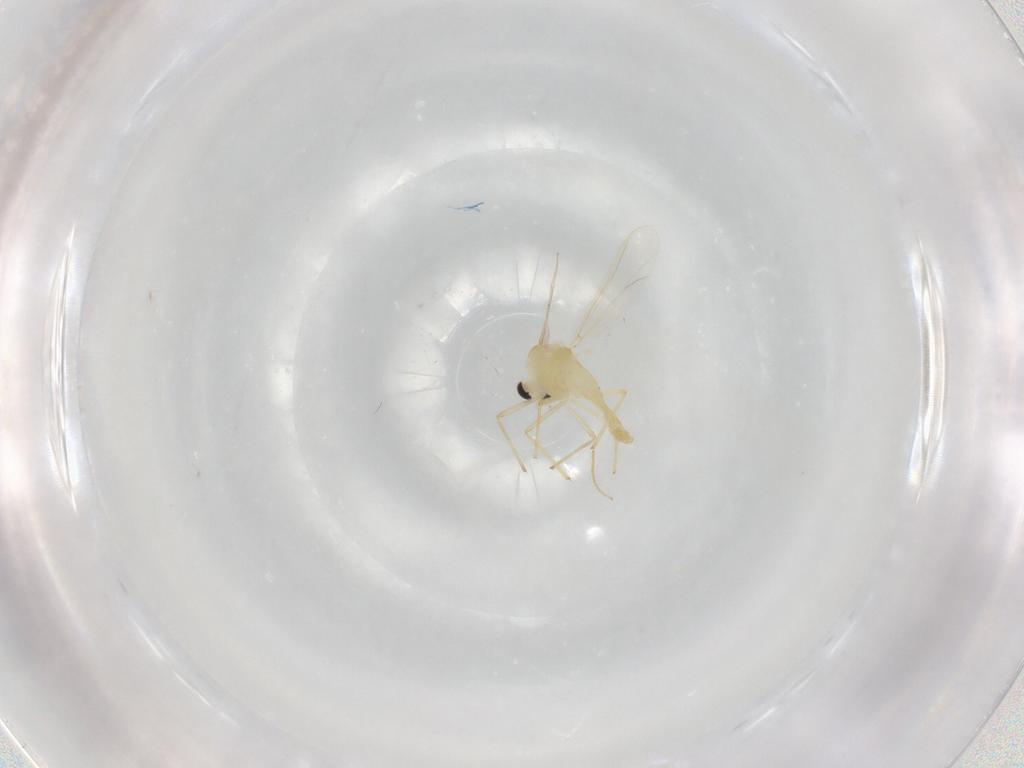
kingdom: Animalia
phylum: Arthropoda
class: Insecta
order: Diptera
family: Chironomidae
